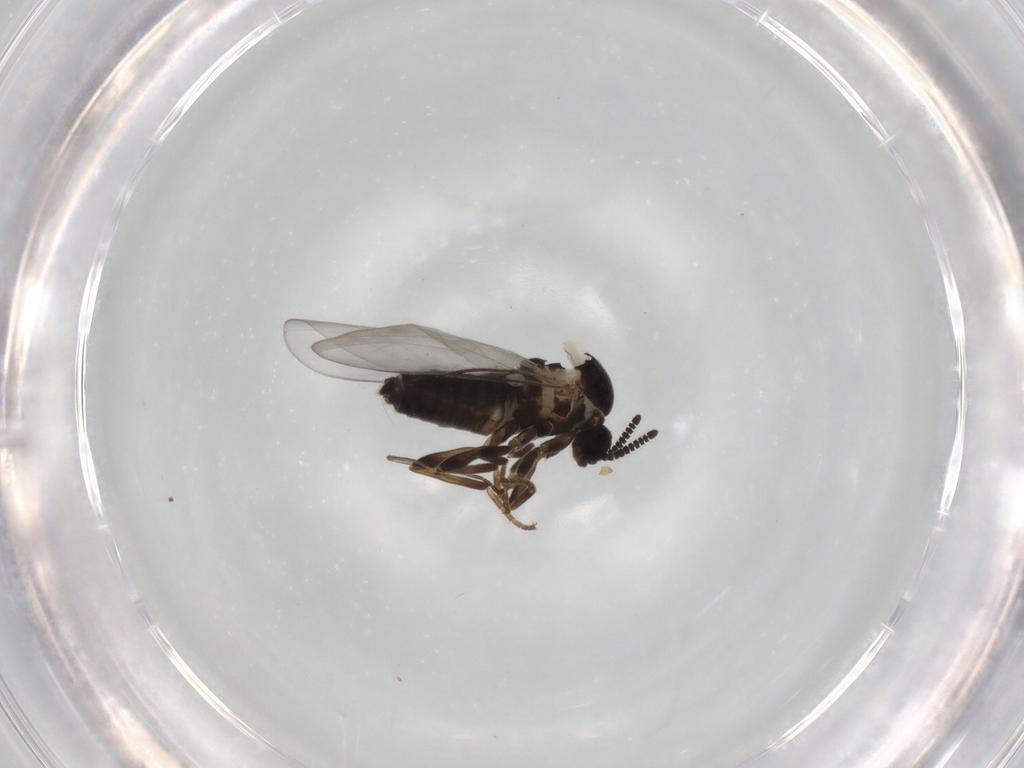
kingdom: Animalia
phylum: Arthropoda
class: Insecta
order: Diptera
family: Scatopsidae
